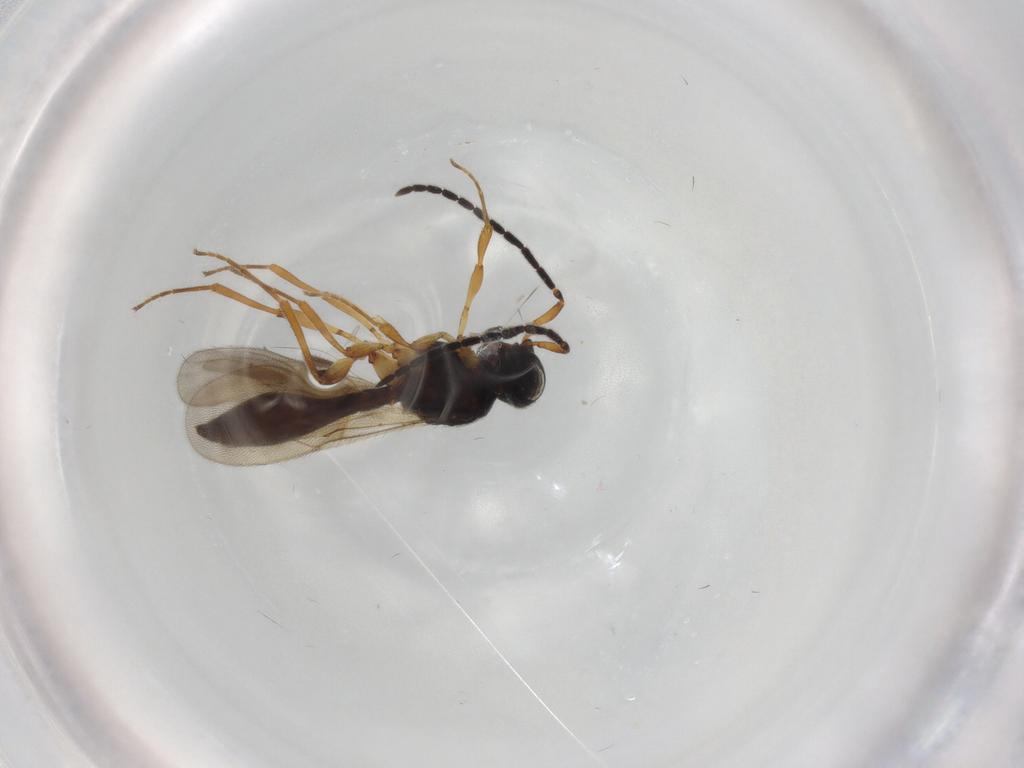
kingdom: Animalia
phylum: Arthropoda
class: Insecta
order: Hymenoptera
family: Scelionidae
